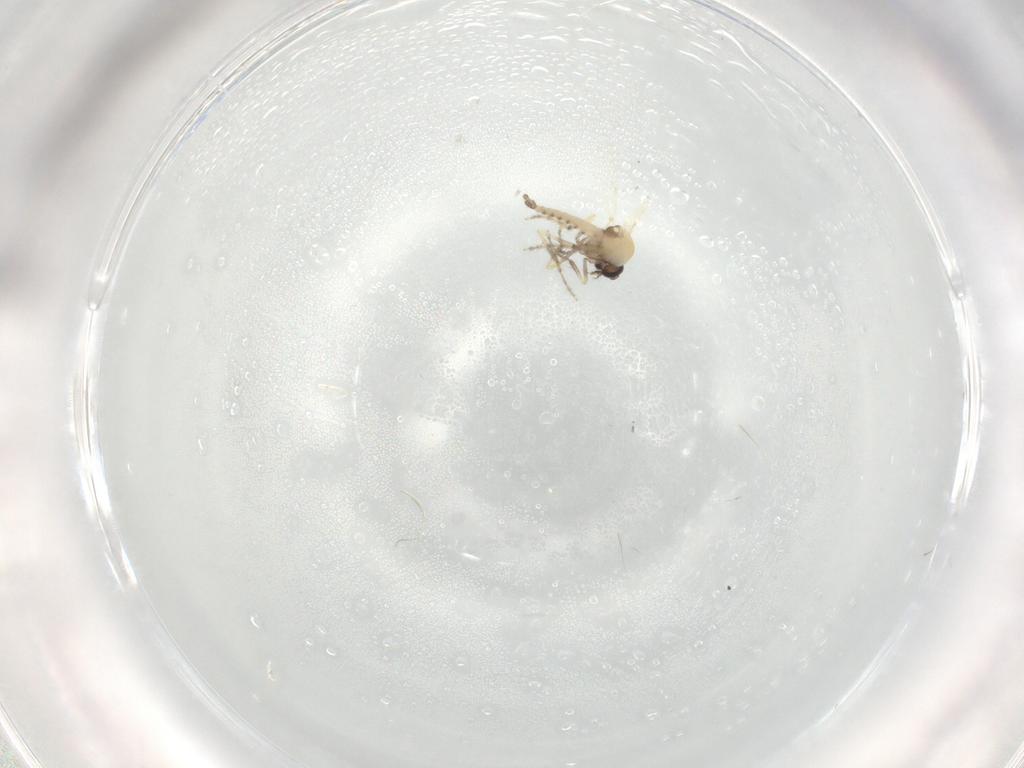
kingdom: Animalia
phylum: Arthropoda
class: Insecta
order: Diptera
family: Ceratopogonidae
